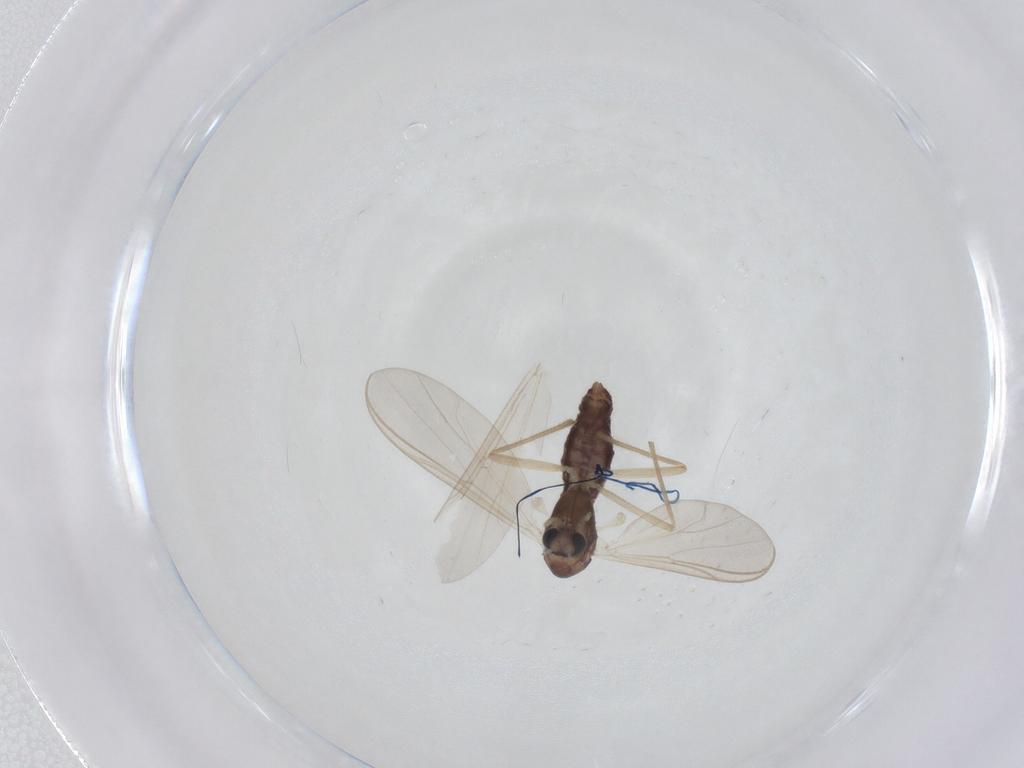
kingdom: Animalia
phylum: Arthropoda
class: Insecta
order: Diptera
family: Chironomidae
